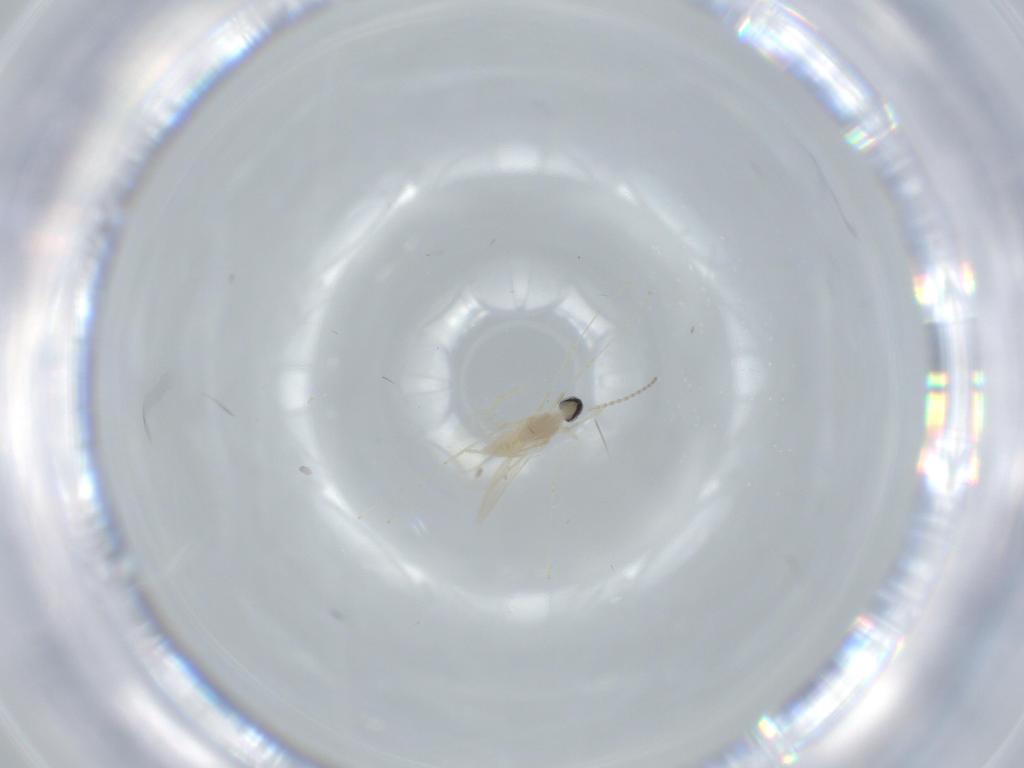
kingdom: Animalia
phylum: Arthropoda
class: Insecta
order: Diptera
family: Cecidomyiidae
